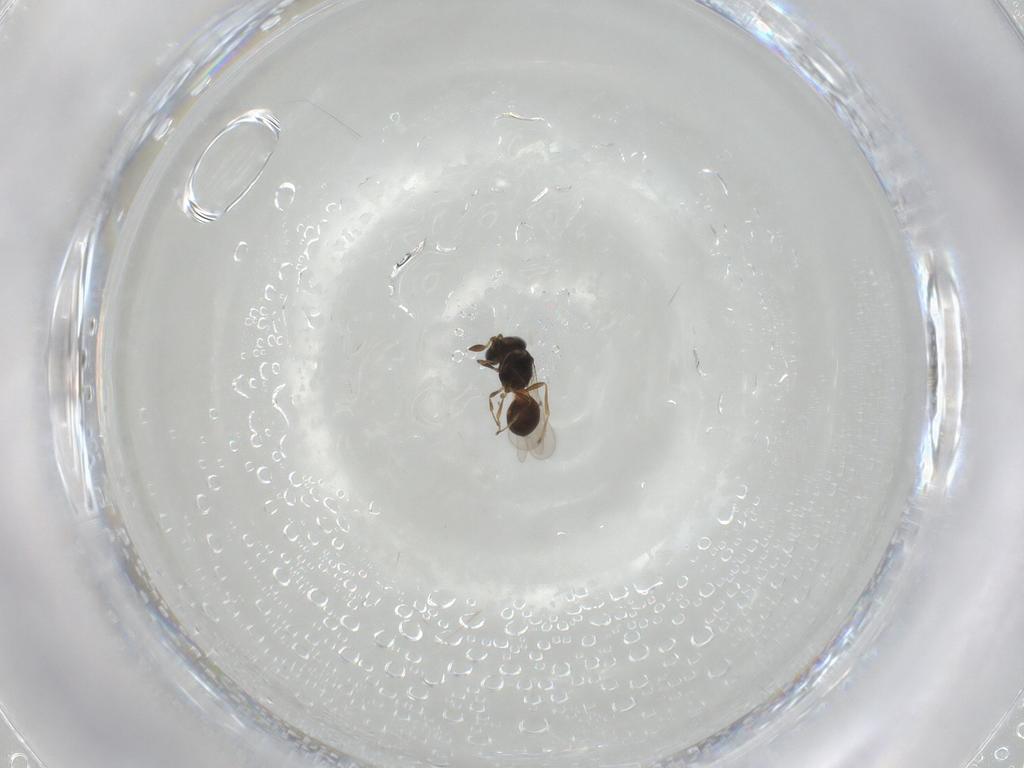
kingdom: Animalia
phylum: Arthropoda
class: Insecta
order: Hymenoptera
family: Scelionidae
